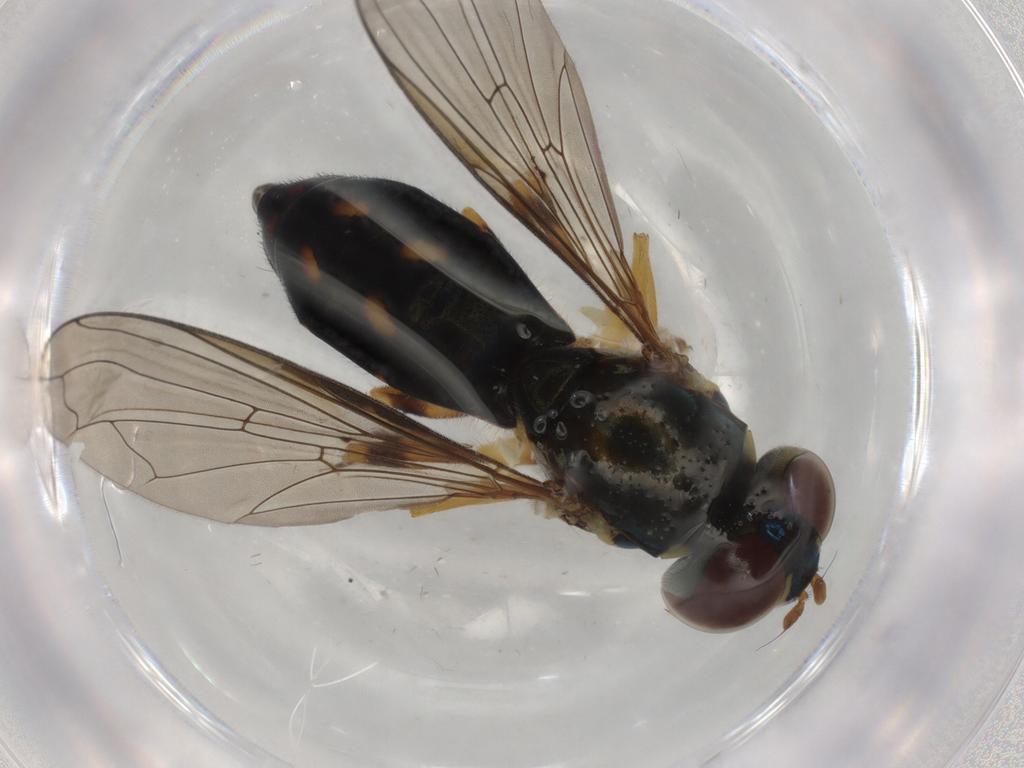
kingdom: Animalia
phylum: Arthropoda
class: Insecta
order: Diptera
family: Syrphidae
